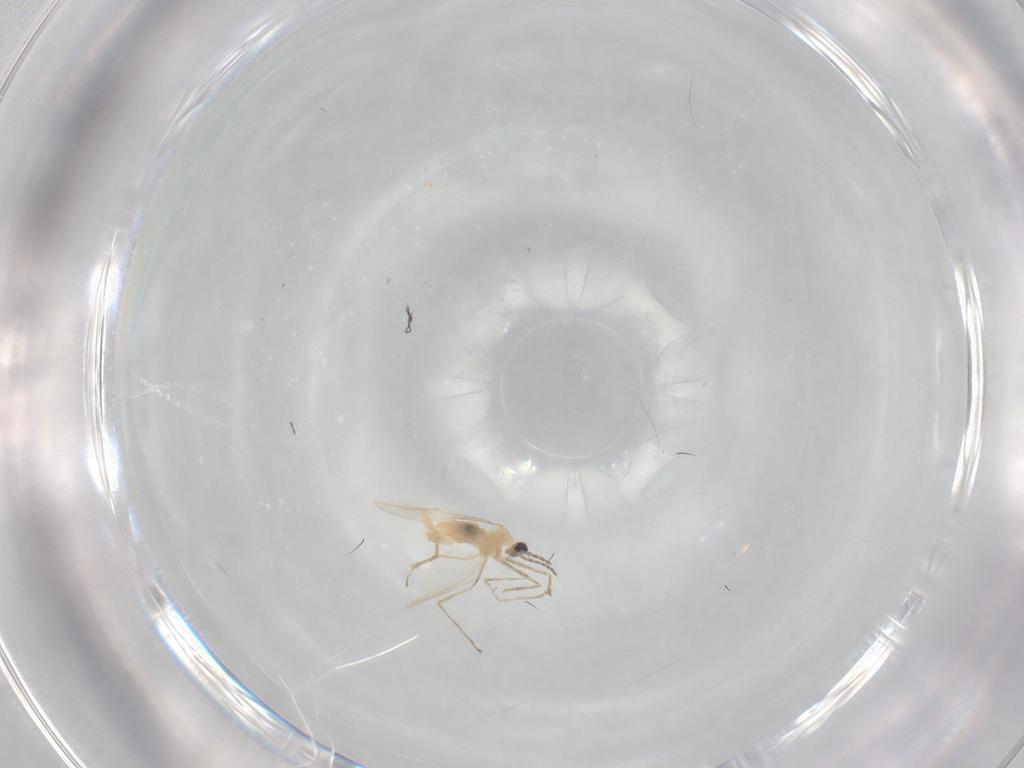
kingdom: Animalia
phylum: Arthropoda
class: Insecta
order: Diptera
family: Cecidomyiidae
